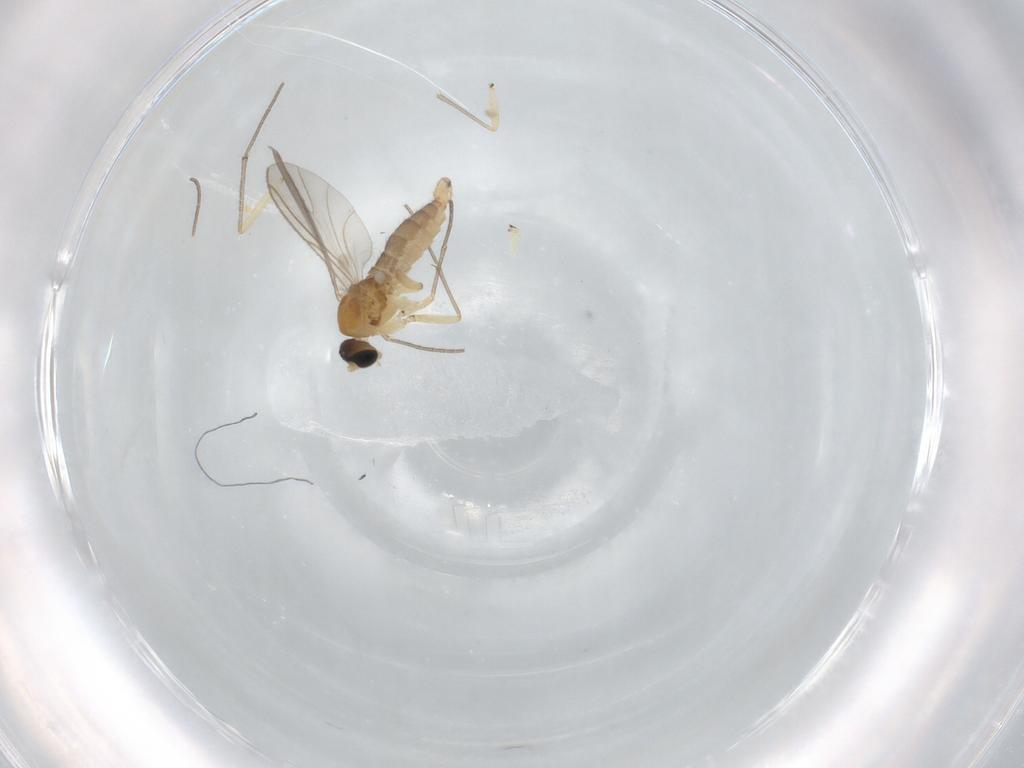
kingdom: Animalia
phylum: Arthropoda
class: Insecta
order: Diptera
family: Sciaridae
